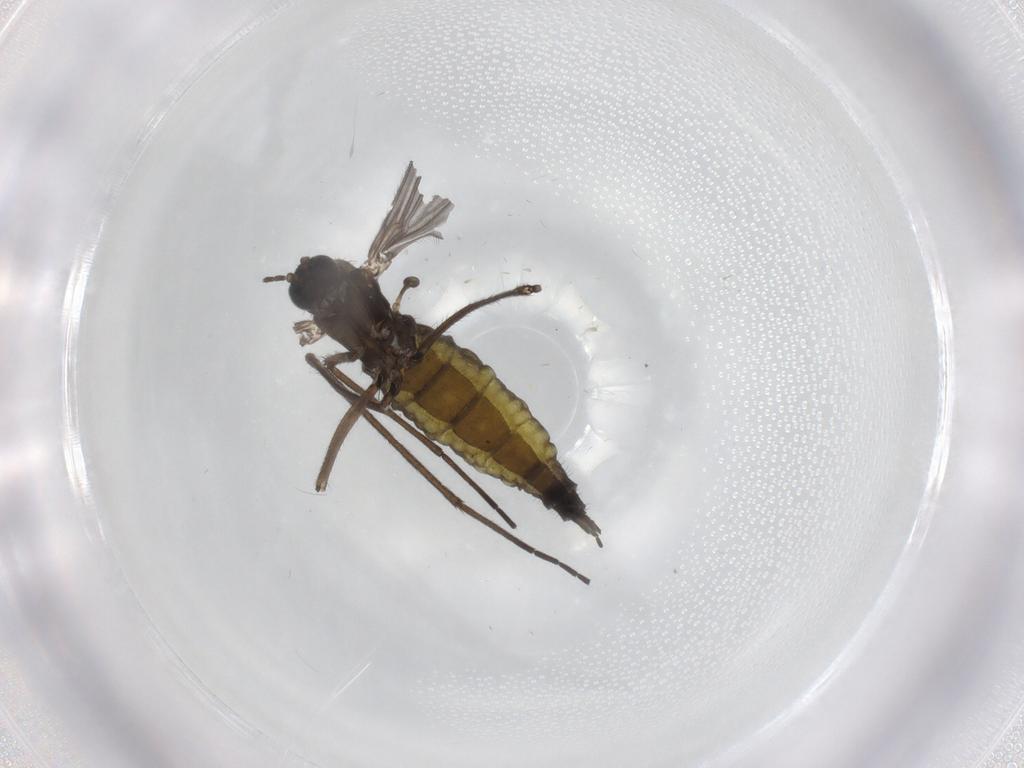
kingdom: Animalia
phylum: Arthropoda
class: Insecta
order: Diptera
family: Sciaridae
